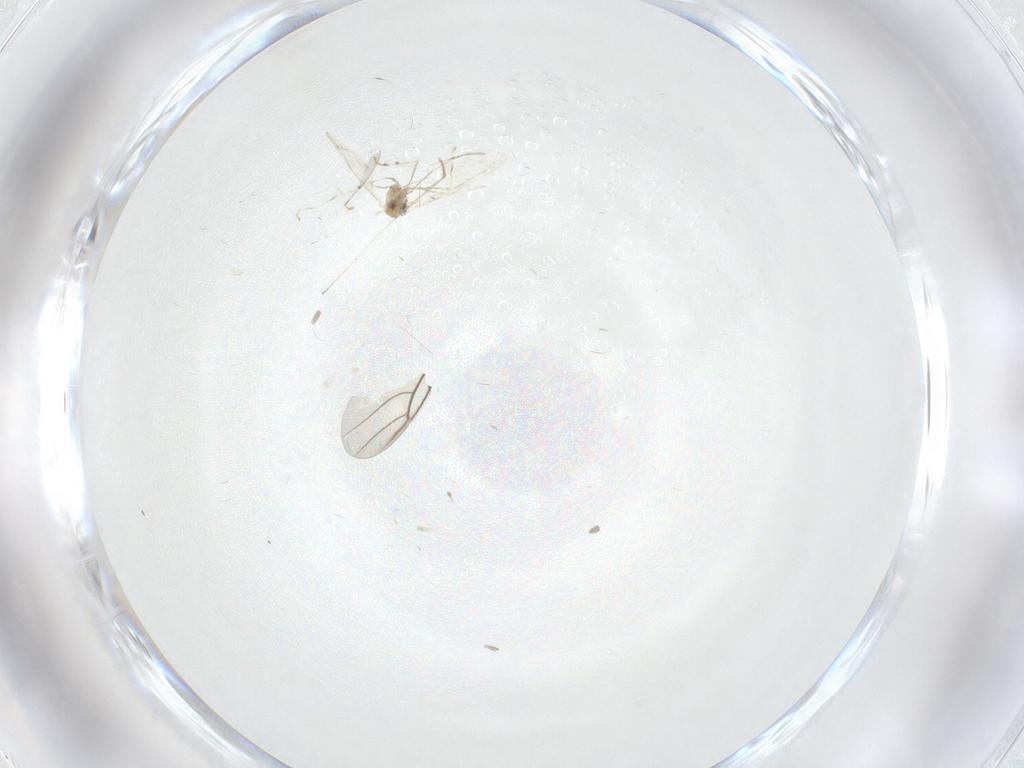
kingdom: Animalia
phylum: Arthropoda
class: Insecta
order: Diptera
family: Cecidomyiidae
